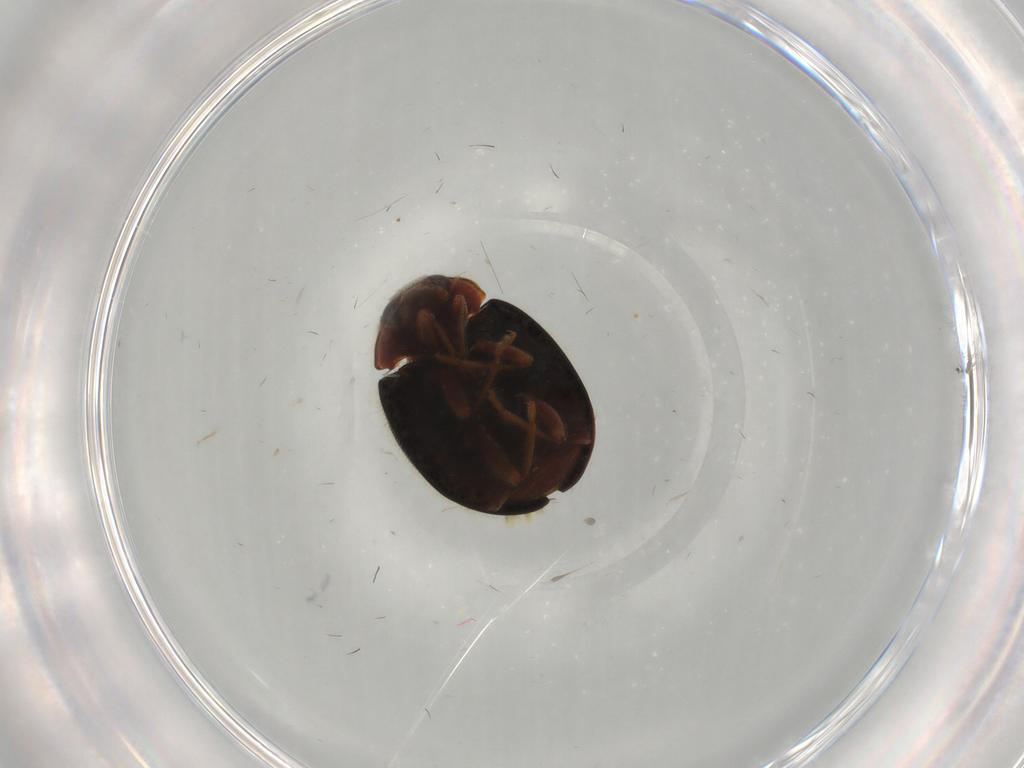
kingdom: Animalia
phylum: Arthropoda
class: Insecta
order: Coleoptera
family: Coccinellidae
